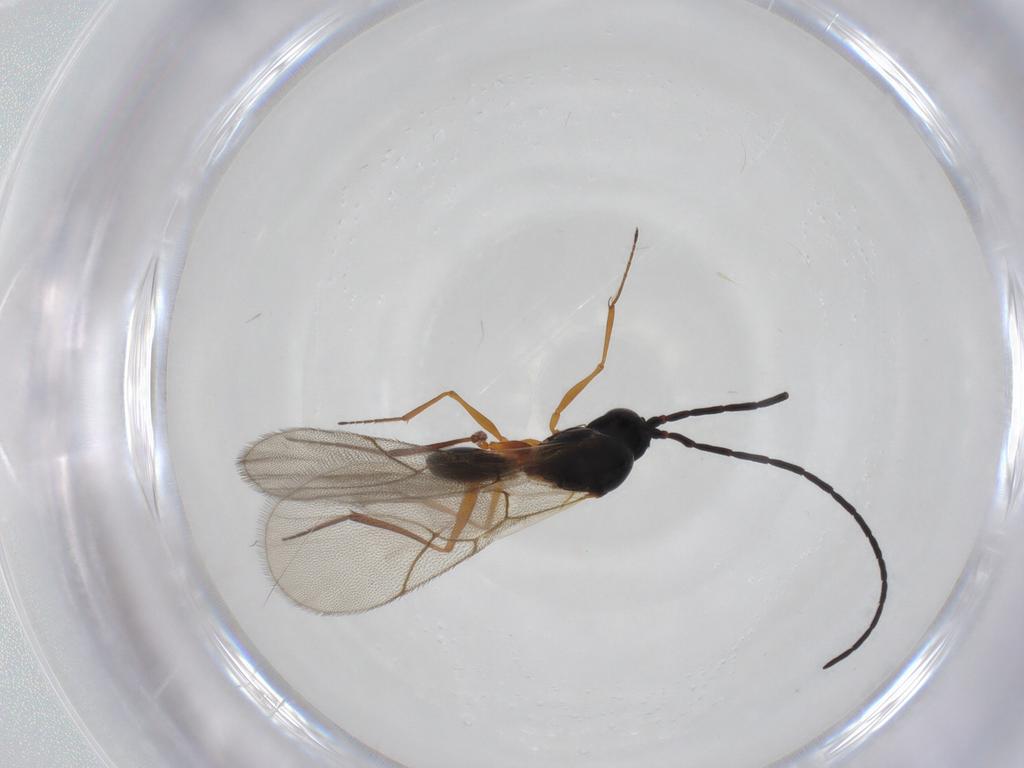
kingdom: Animalia
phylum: Arthropoda
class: Insecta
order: Hymenoptera
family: Figitidae
